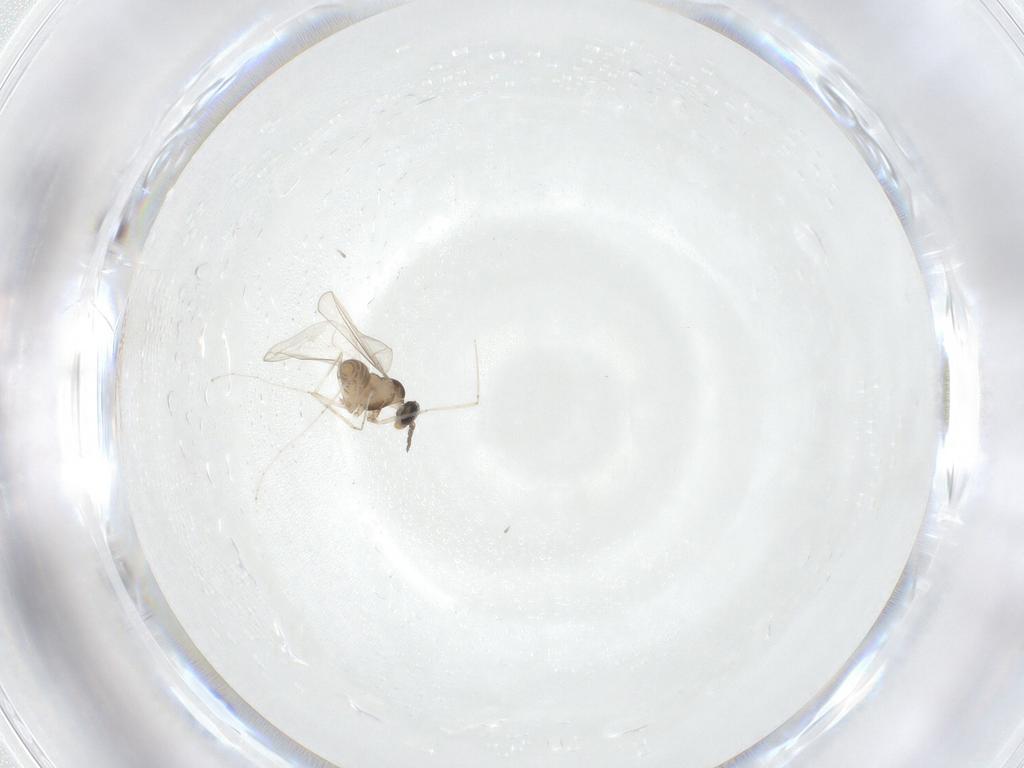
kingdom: Animalia
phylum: Arthropoda
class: Insecta
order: Diptera
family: Cecidomyiidae
